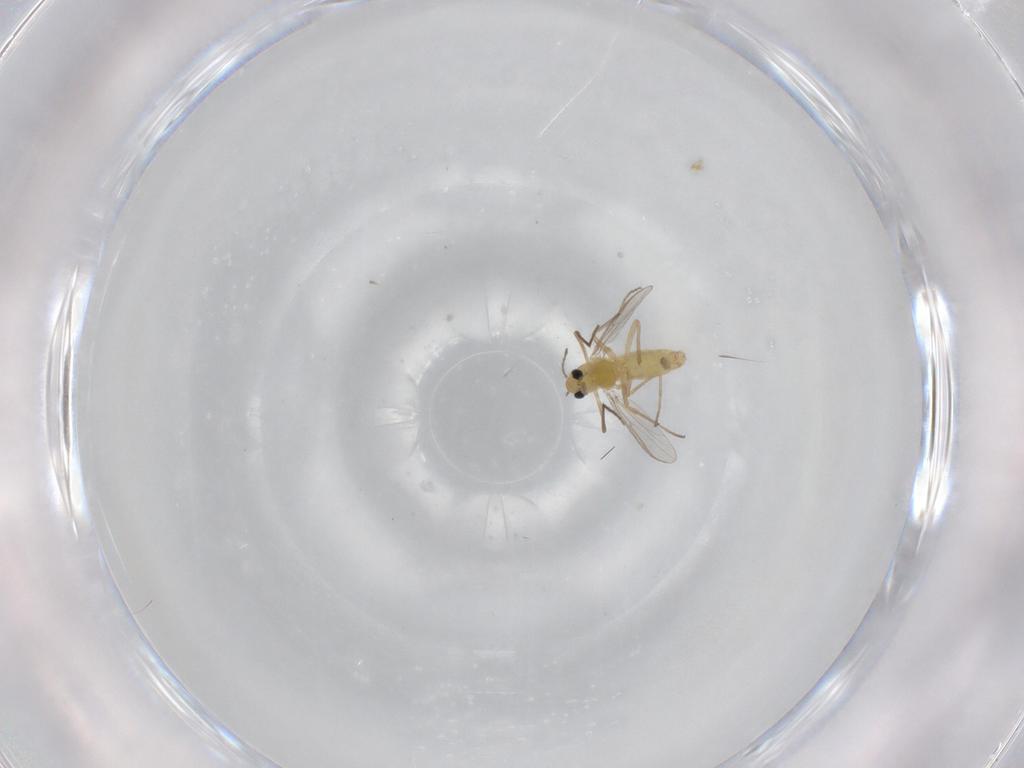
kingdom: Animalia
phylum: Arthropoda
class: Insecta
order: Diptera
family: Chironomidae
